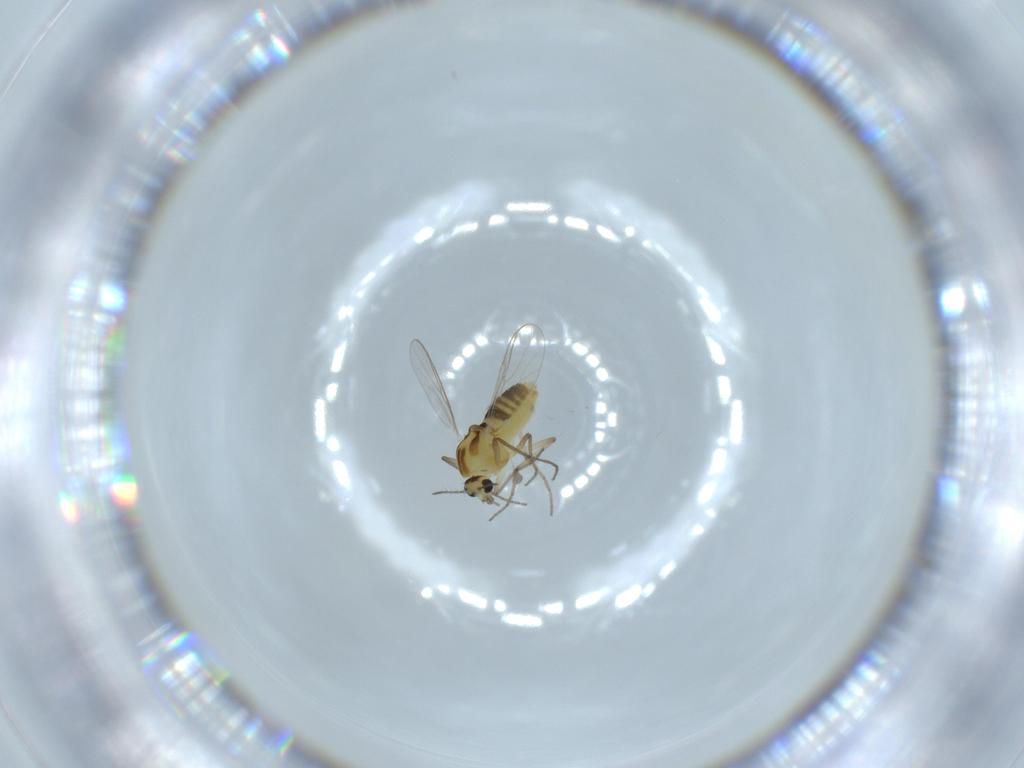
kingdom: Animalia
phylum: Arthropoda
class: Insecta
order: Diptera
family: Chironomidae
